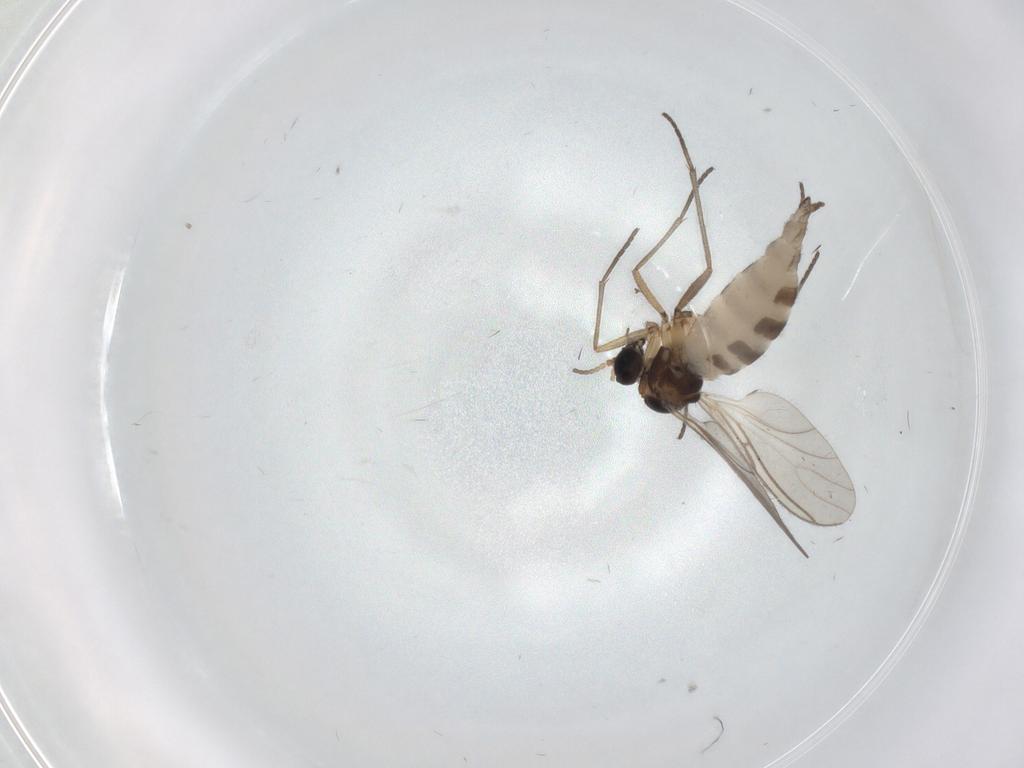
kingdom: Animalia
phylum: Arthropoda
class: Insecta
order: Diptera
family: Sciaridae
